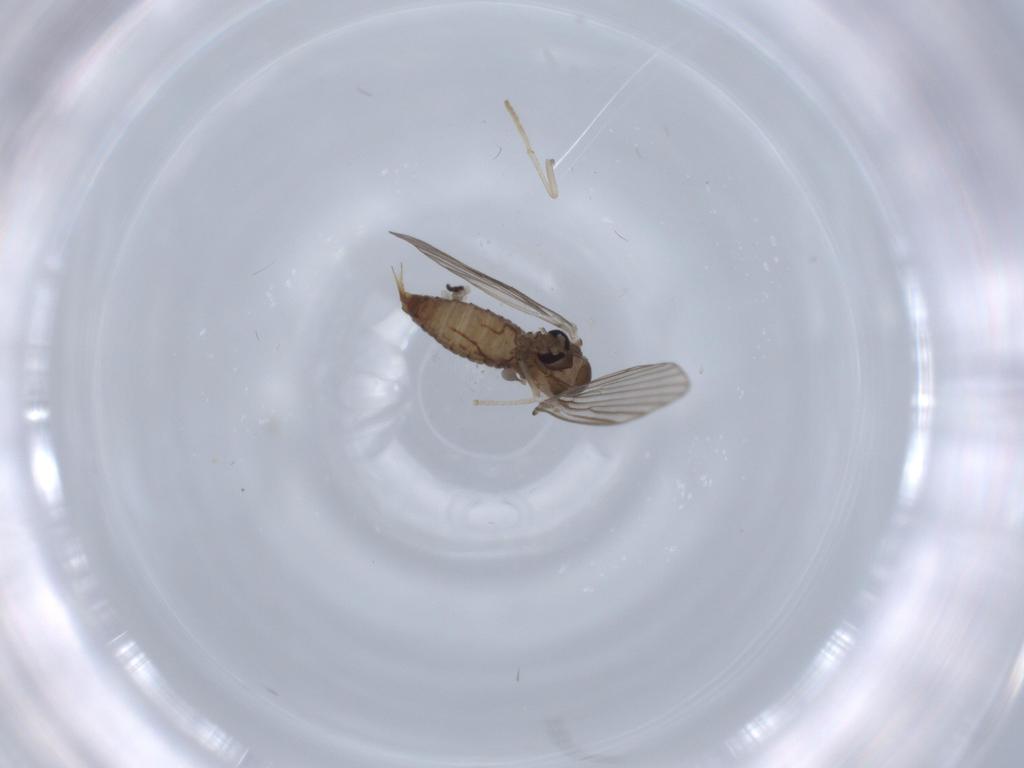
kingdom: Animalia
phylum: Arthropoda
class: Insecta
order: Diptera
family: Psychodidae
